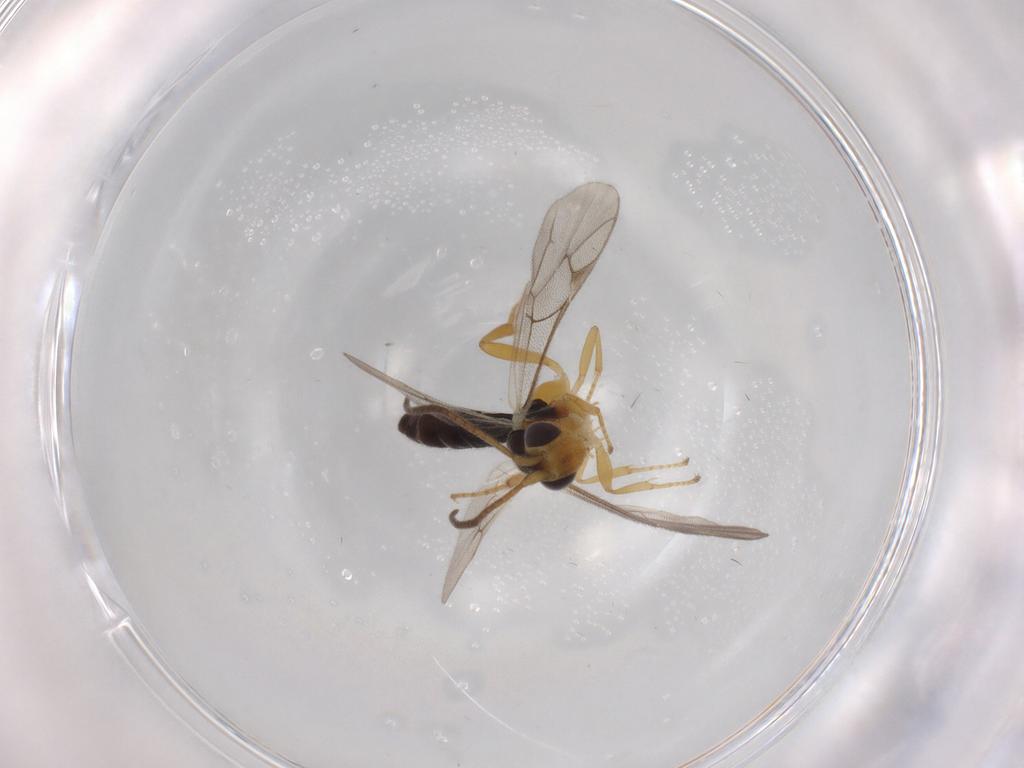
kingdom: Animalia
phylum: Arthropoda
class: Insecta
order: Hymenoptera
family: Ichneumonidae
